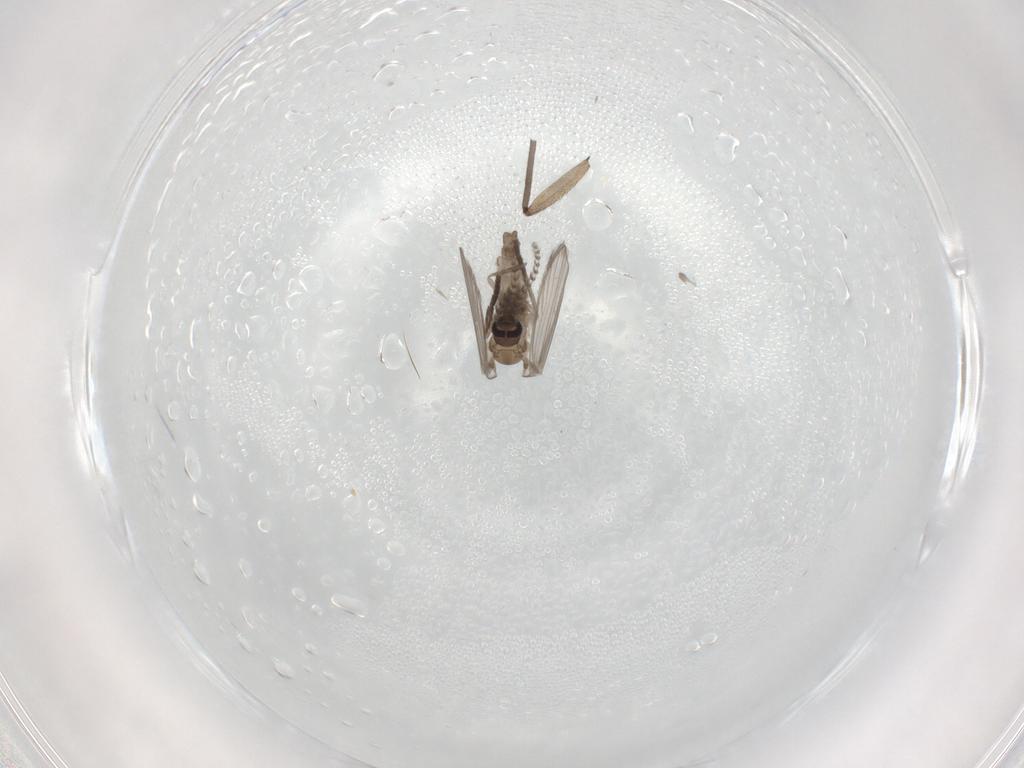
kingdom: Animalia
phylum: Arthropoda
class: Insecta
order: Diptera
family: Psychodidae
